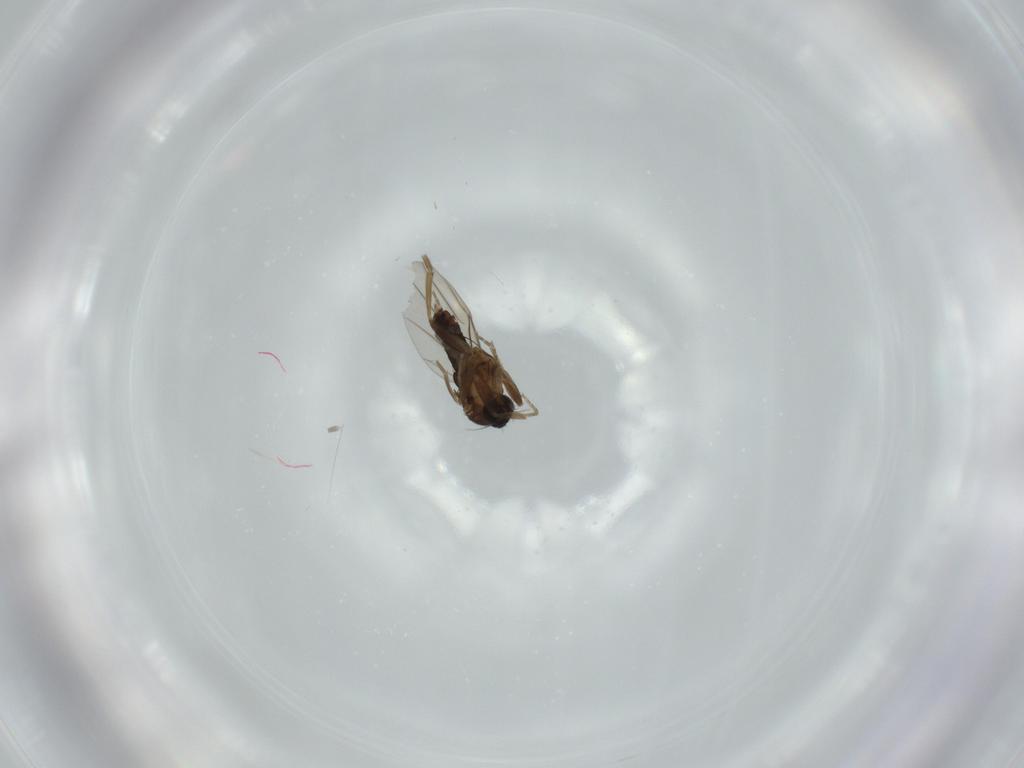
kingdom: Animalia
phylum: Arthropoda
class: Insecta
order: Diptera
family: Phoridae
